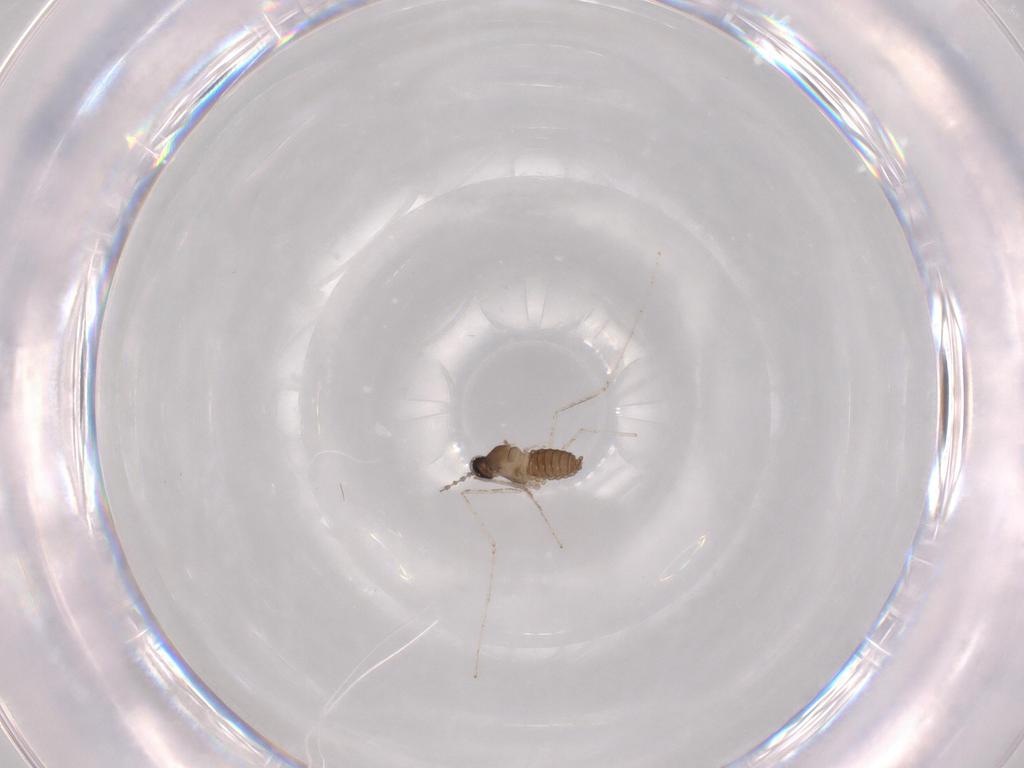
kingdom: Animalia
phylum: Arthropoda
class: Insecta
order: Diptera
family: Cecidomyiidae
